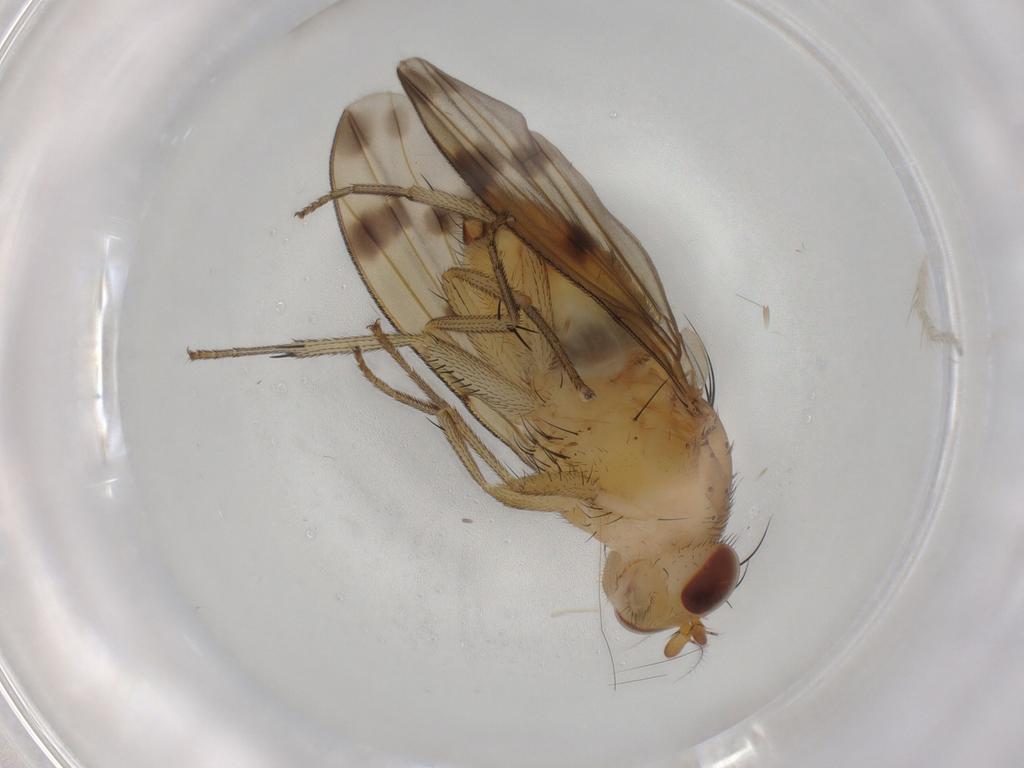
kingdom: Animalia
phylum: Arthropoda
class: Insecta
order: Diptera
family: Lauxaniidae
